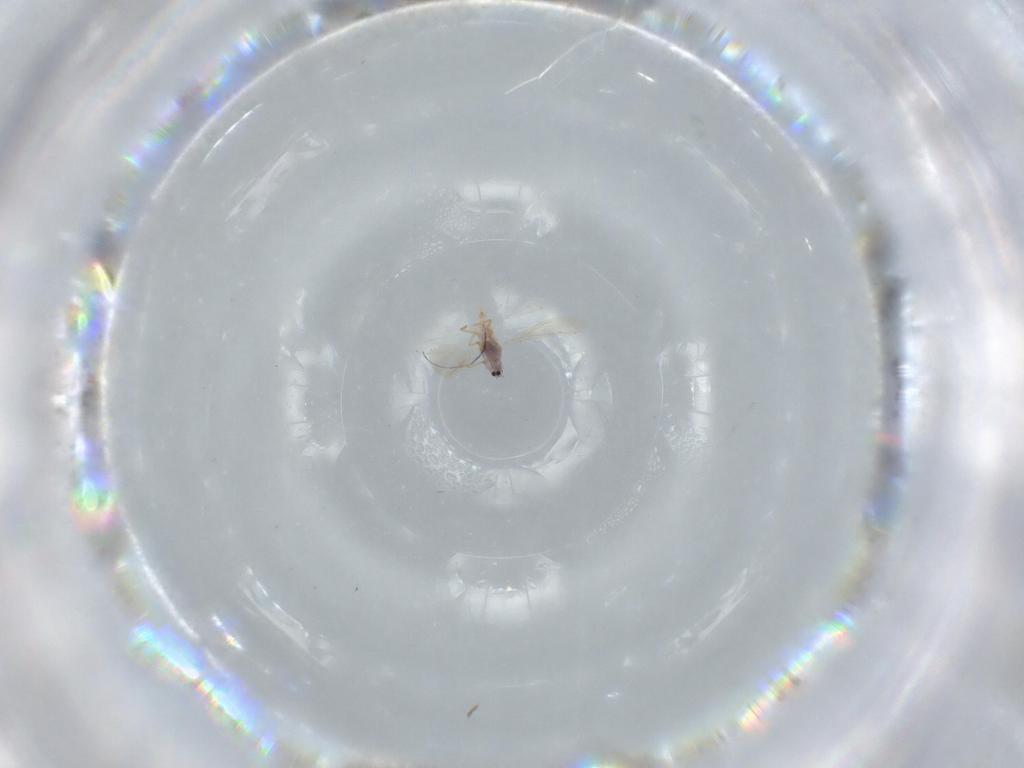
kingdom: Animalia
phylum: Arthropoda
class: Insecta
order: Hemiptera
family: Diaspididae
